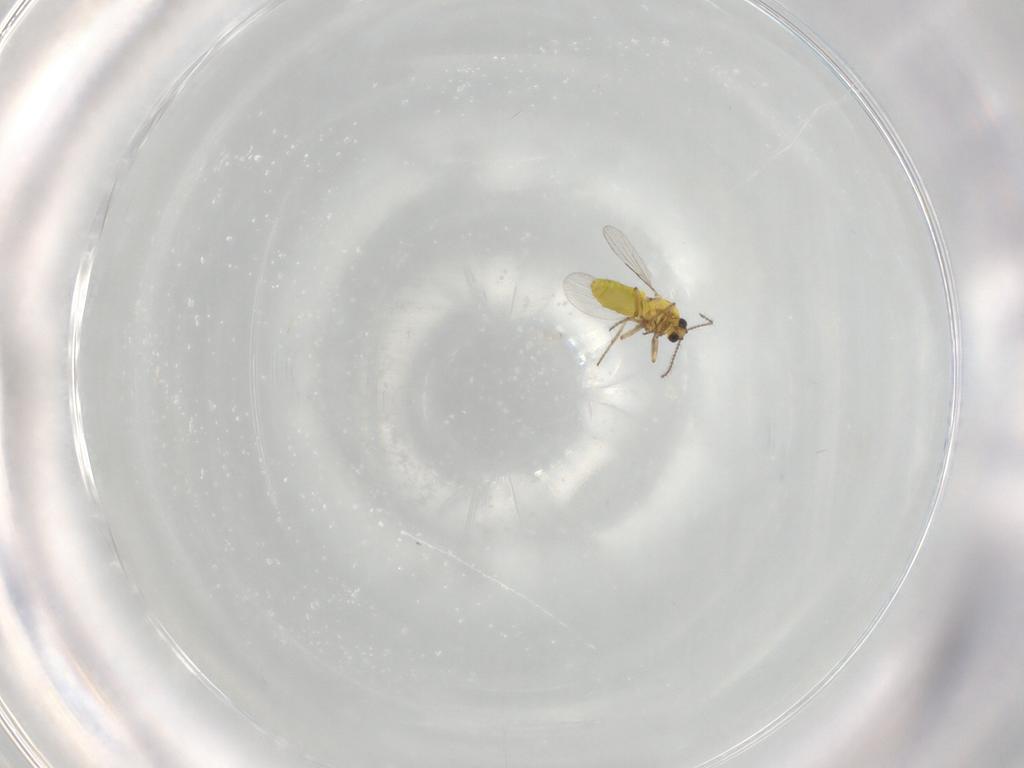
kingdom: Animalia
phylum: Arthropoda
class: Insecta
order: Diptera
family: Ceratopogonidae
